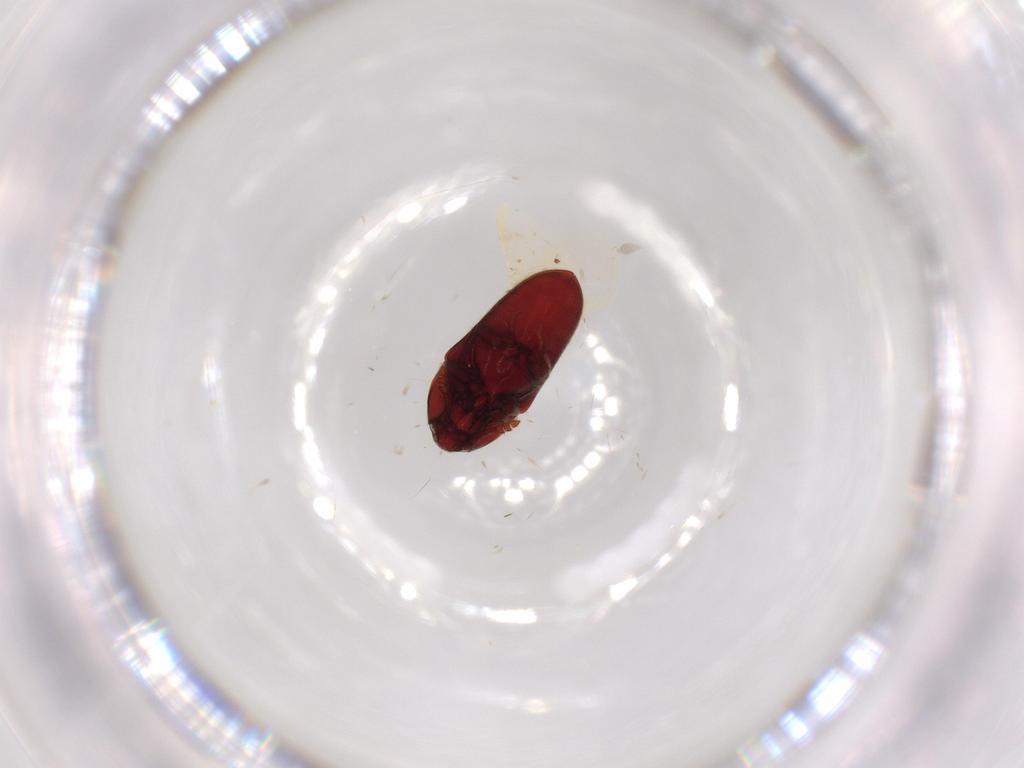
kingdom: Animalia
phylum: Arthropoda
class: Insecta
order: Coleoptera
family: Throscidae
